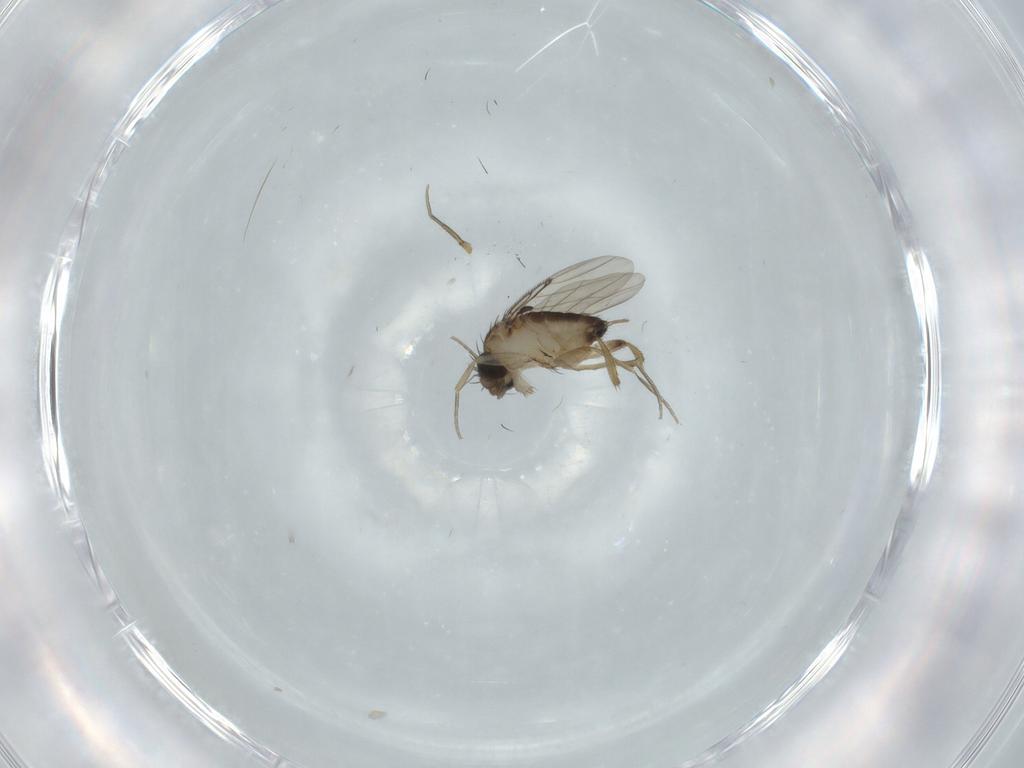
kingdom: Animalia
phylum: Arthropoda
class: Insecta
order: Diptera
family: Phoridae
